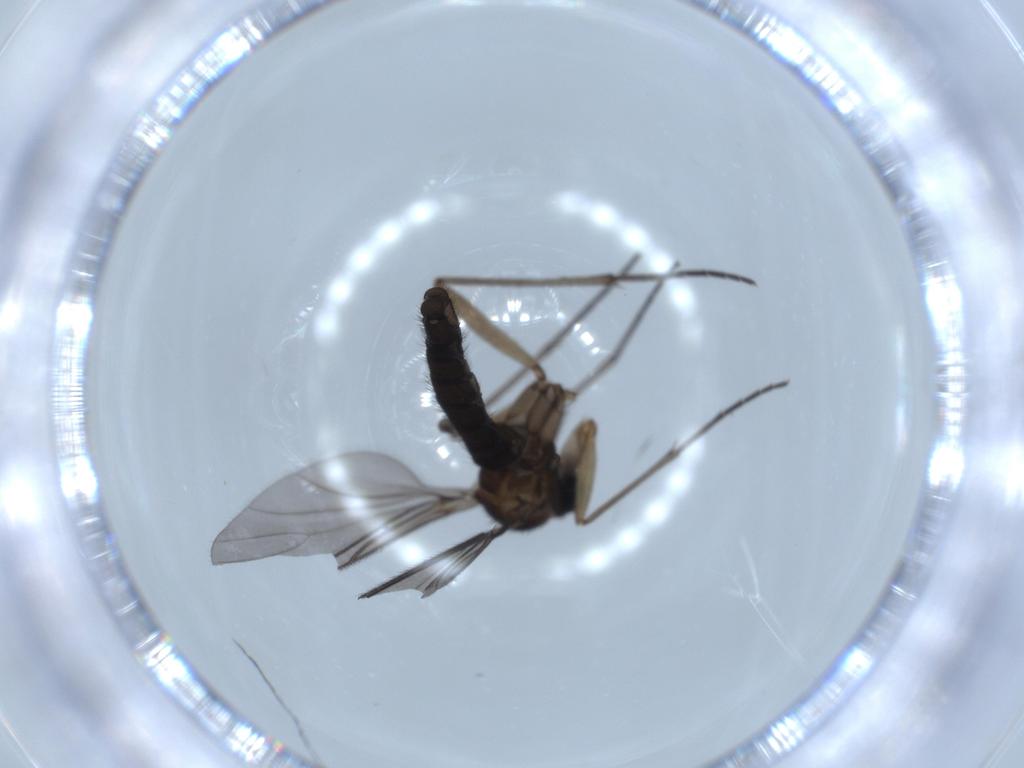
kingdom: Animalia
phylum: Arthropoda
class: Insecta
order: Diptera
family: Sciaridae
